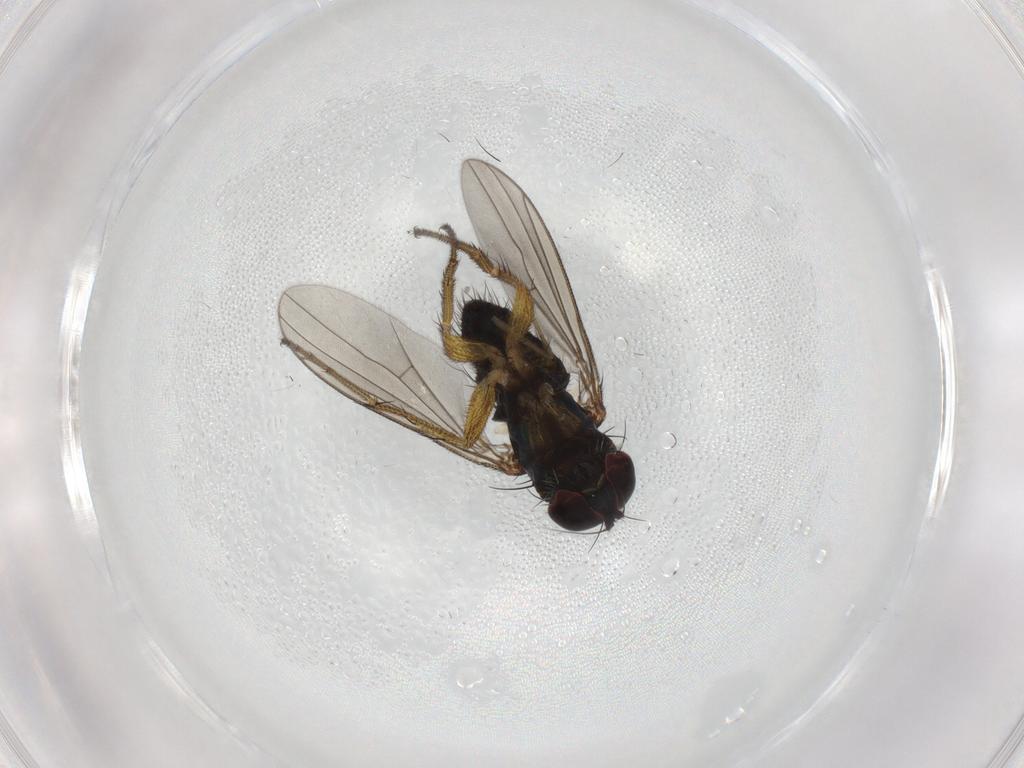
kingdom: Animalia
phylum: Arthropoda
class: Insecta
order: Diptera
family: Dolichopodidae
